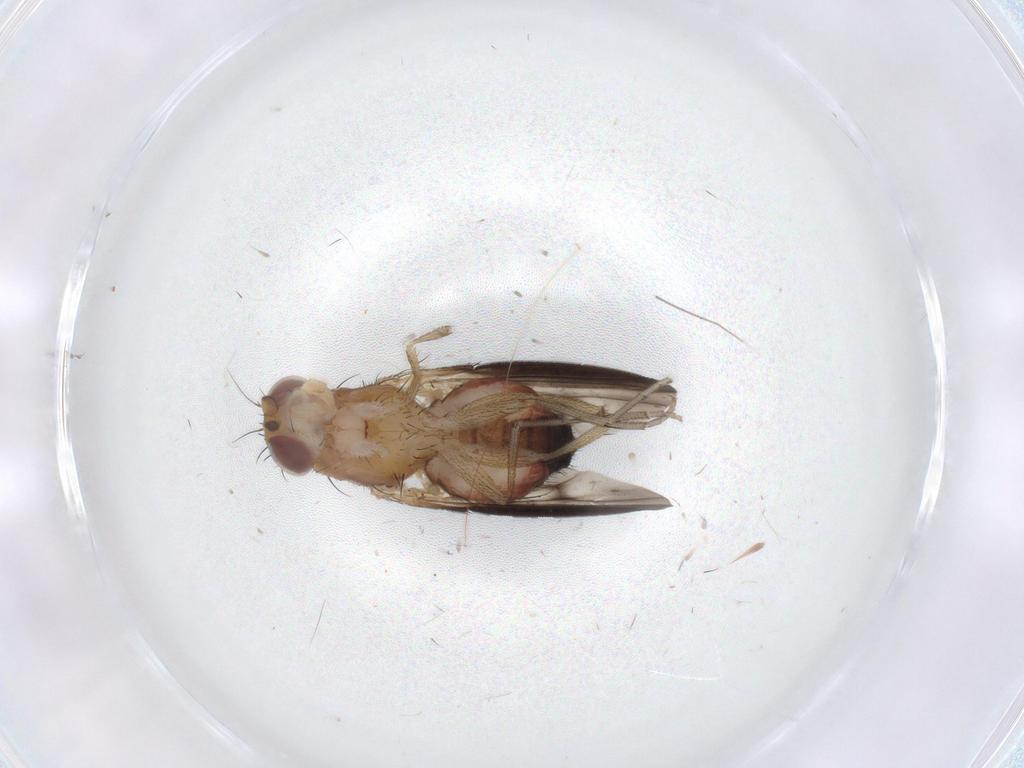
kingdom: Animalia
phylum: Arthropoda
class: Insecta
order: Diptera
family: Heleomyzidae
